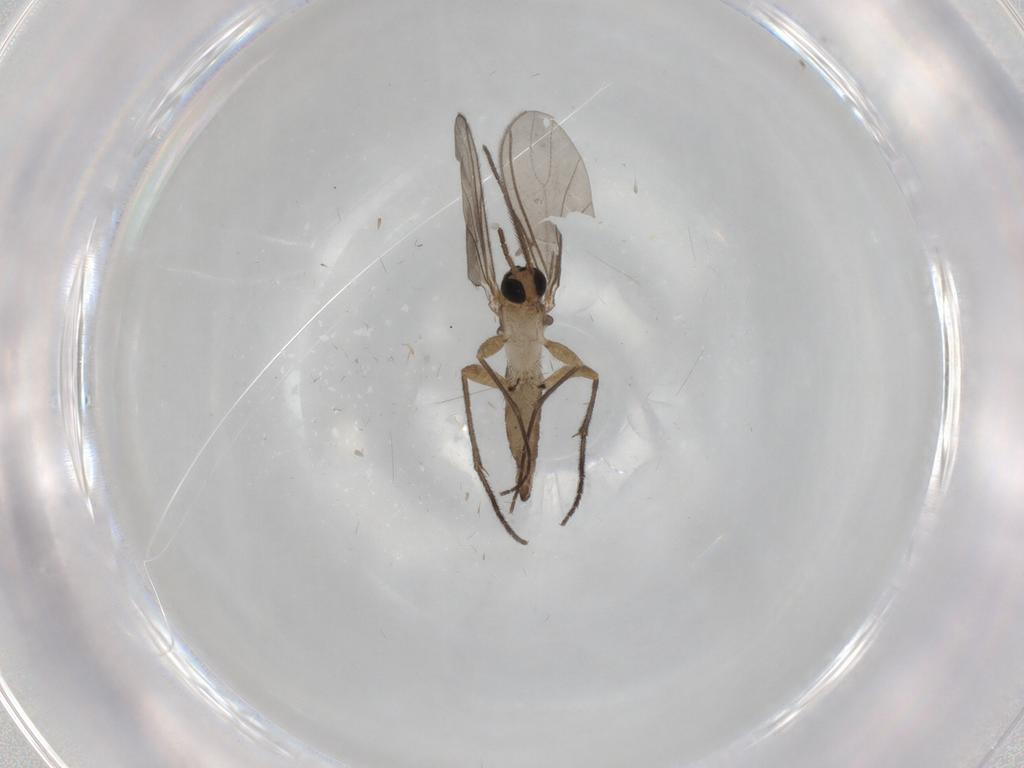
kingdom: Animalia
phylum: Arthropoda
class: Insecta
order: Diptera
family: Sciaridae
